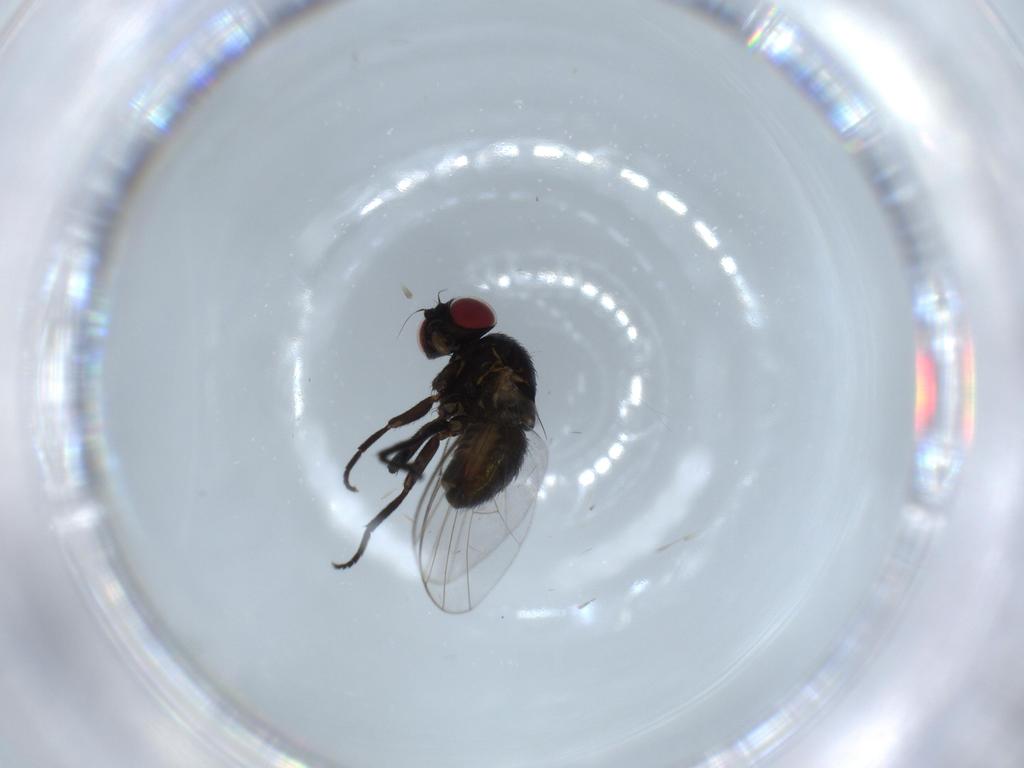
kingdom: Animalia
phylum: Arthropoda
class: Insecta
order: Diptera
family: Agromyzidae
